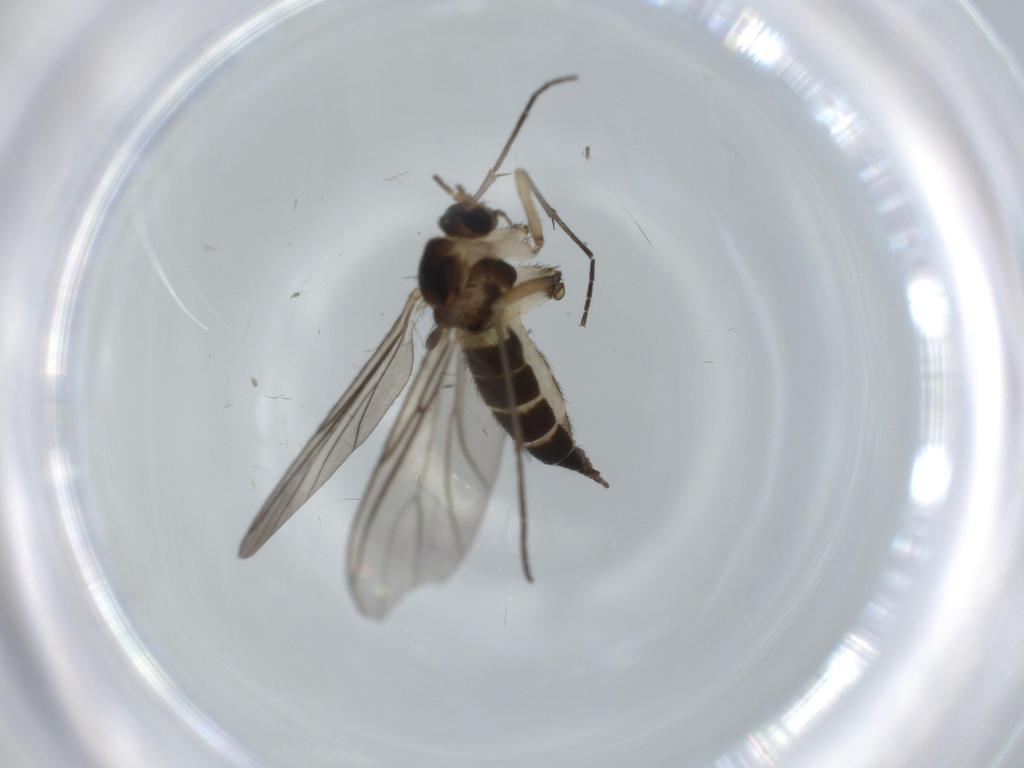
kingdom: Animalia
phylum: Arthropoda
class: Insecta
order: Diptera
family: Sciaridae
